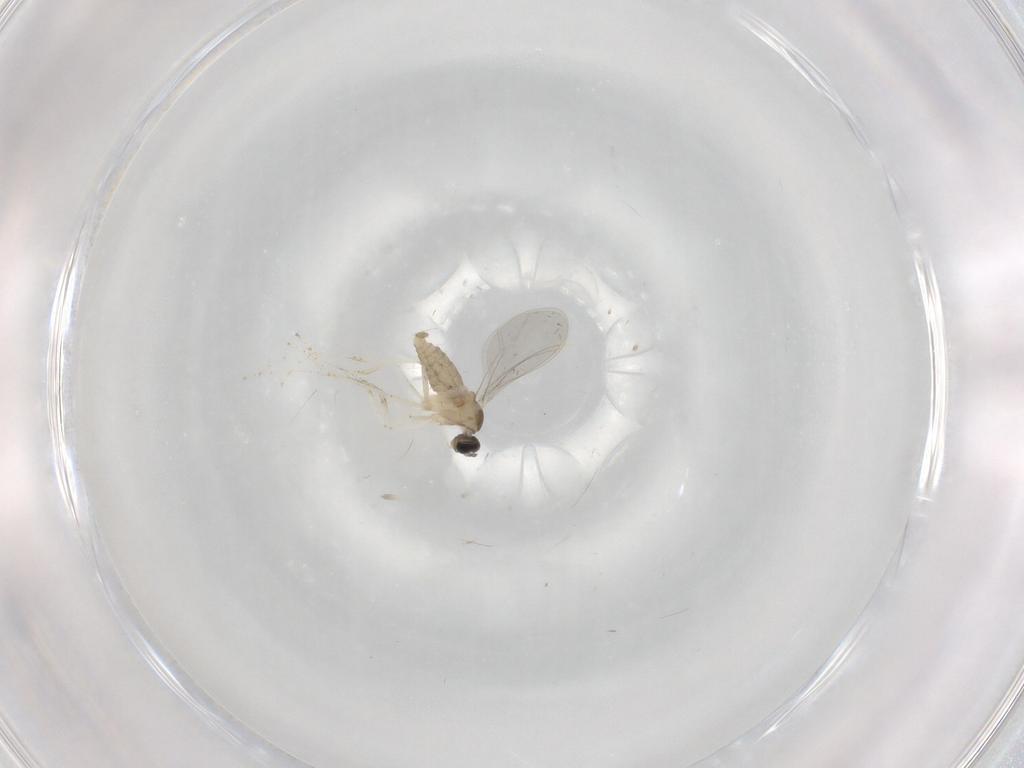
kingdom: Animalia
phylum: Arthropoda
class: Insecta
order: Diptera
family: Cecidomyiidae
